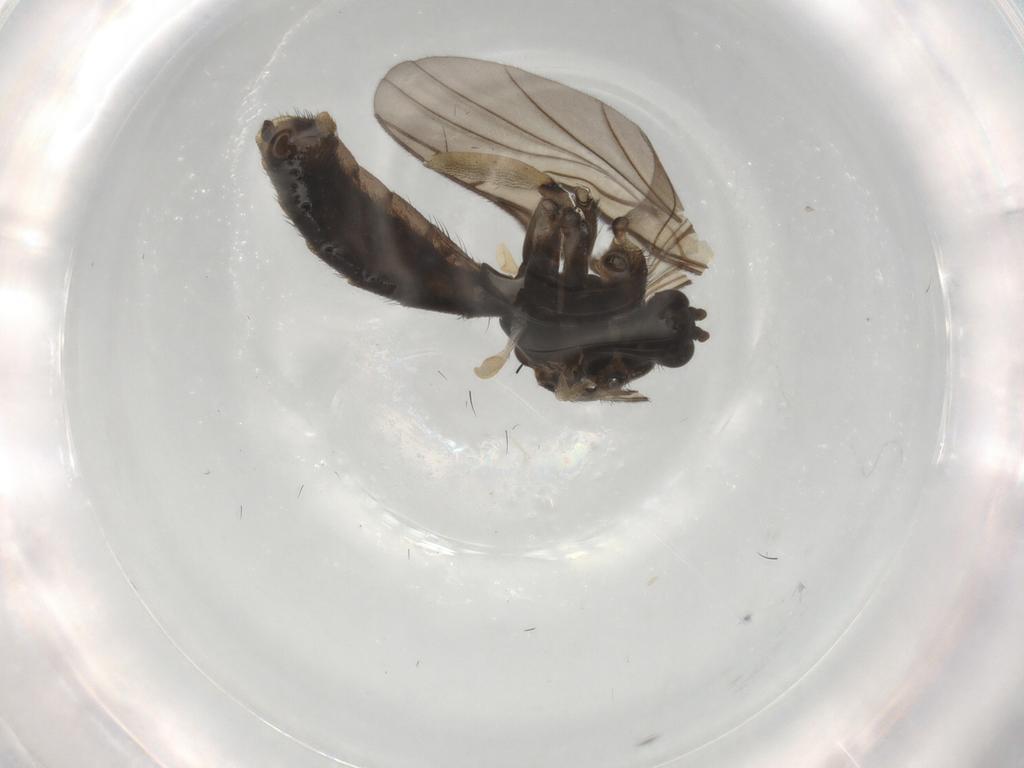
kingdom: Animalia
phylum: Arthropoda
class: Insecta
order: Diptera
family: Keroplatidae
